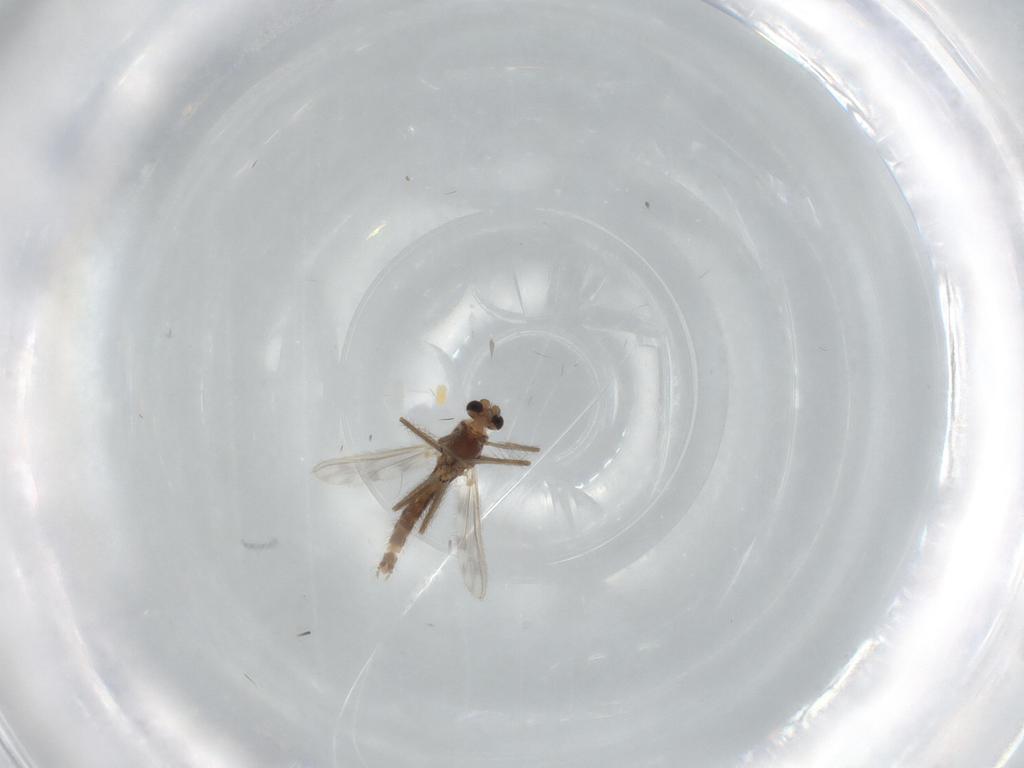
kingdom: Animalia
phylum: Arthropoda
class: Insecta
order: Diptera
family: Chironomidae
